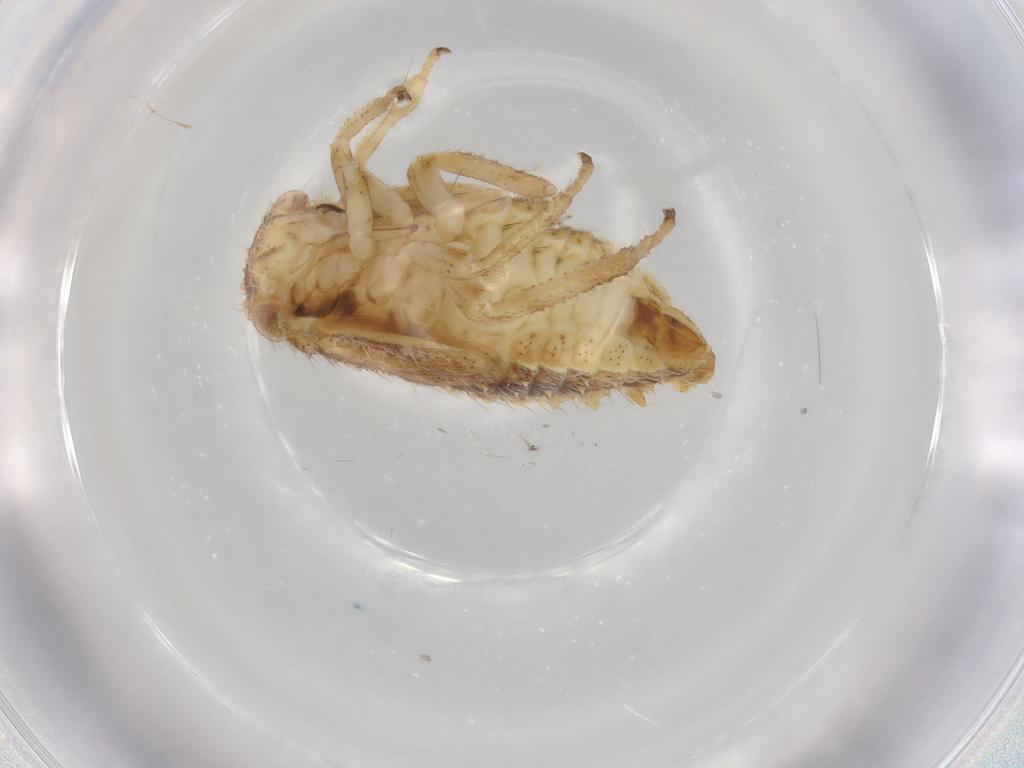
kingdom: Animalia
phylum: Arthropoda
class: Insecta
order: Hemiptera
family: Cicadellidae
